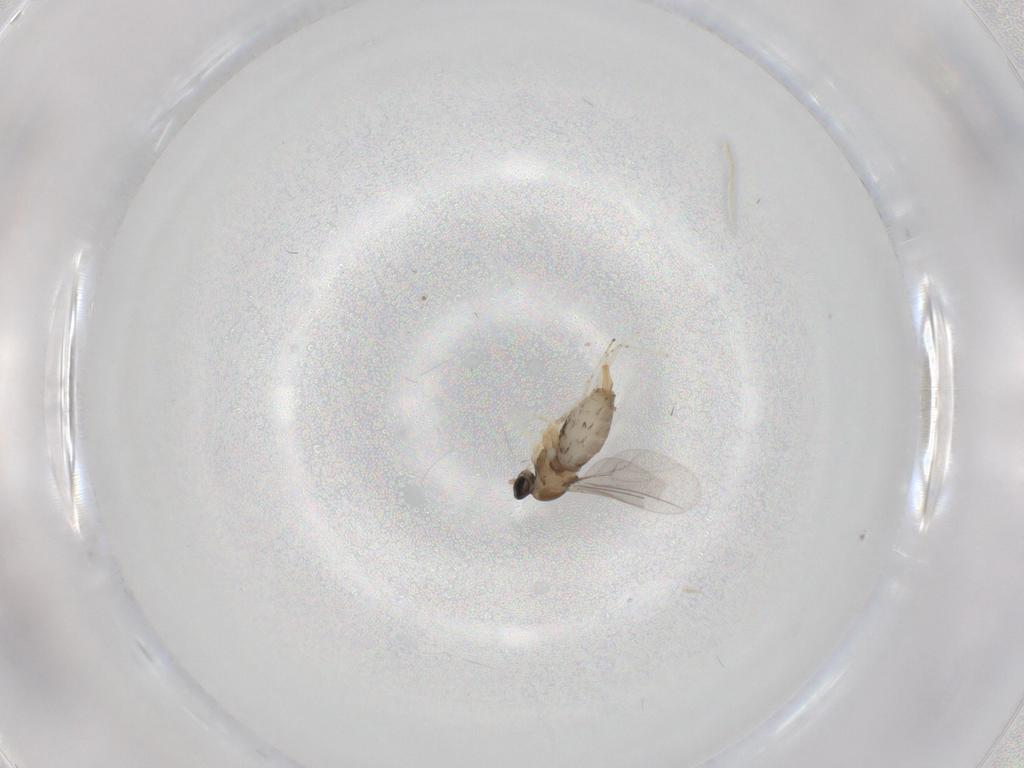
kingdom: Animalia
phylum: Arthropoda
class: Insecta
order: Diptera
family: Cecidomyiidae
